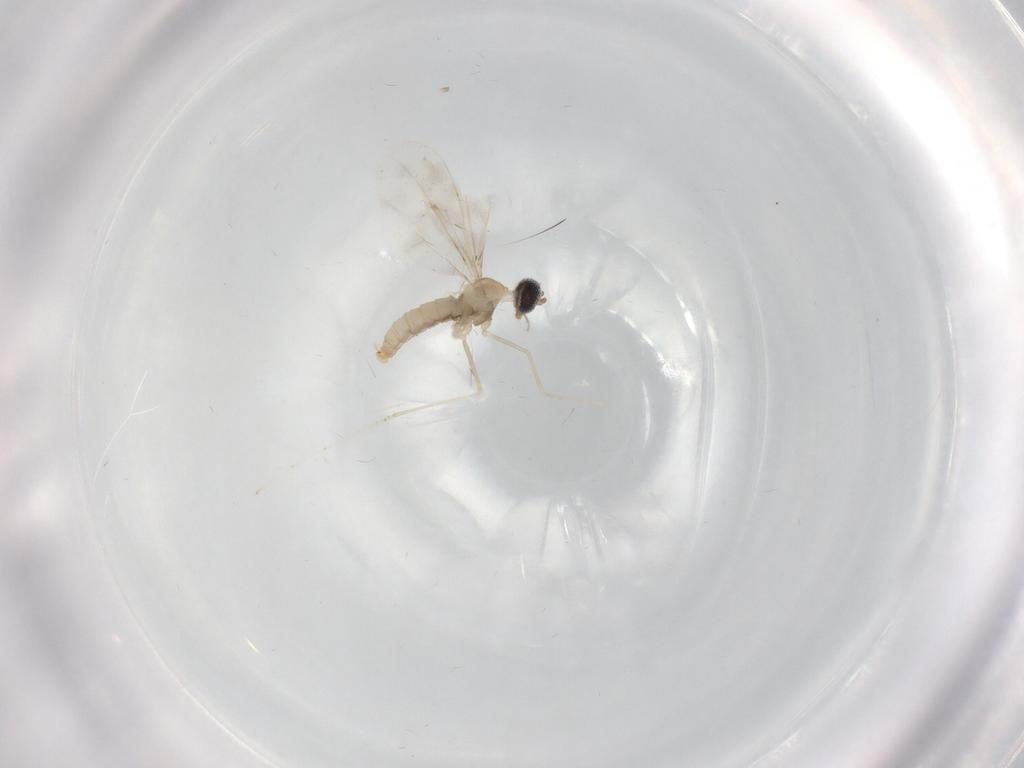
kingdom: Animalia
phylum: Arthropoda
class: Insecta
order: Diptera
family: Cecidomyiidae
